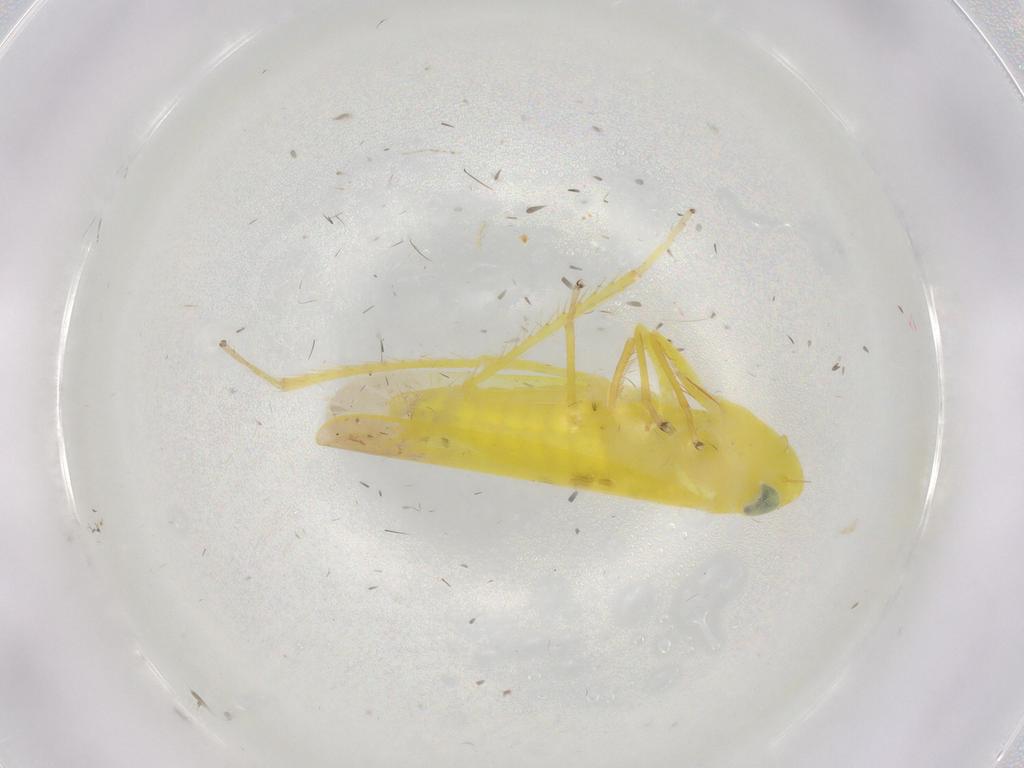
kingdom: Animalia
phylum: Arthropoda
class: Insecta
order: Hemiptera
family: Cicadellidae
